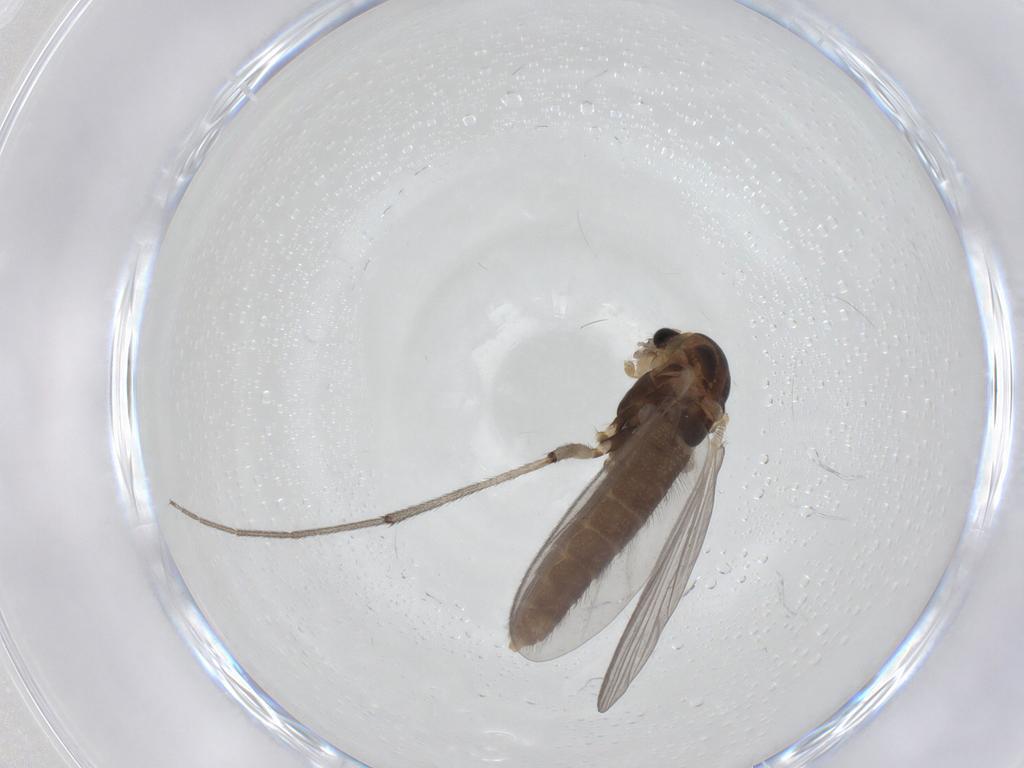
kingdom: Animalia
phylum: Arthropoda
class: Insecta
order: Diptera
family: Chironomidae
